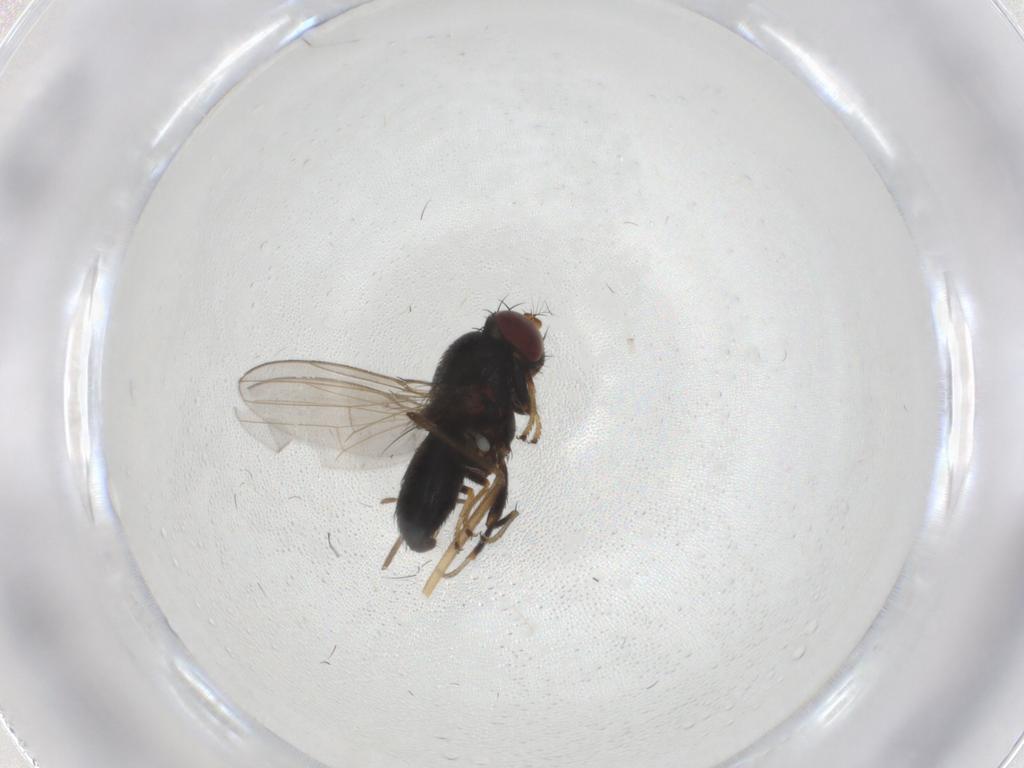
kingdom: Animalia
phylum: Arthropoda
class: Insecta
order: Diptera
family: Ephydridae
